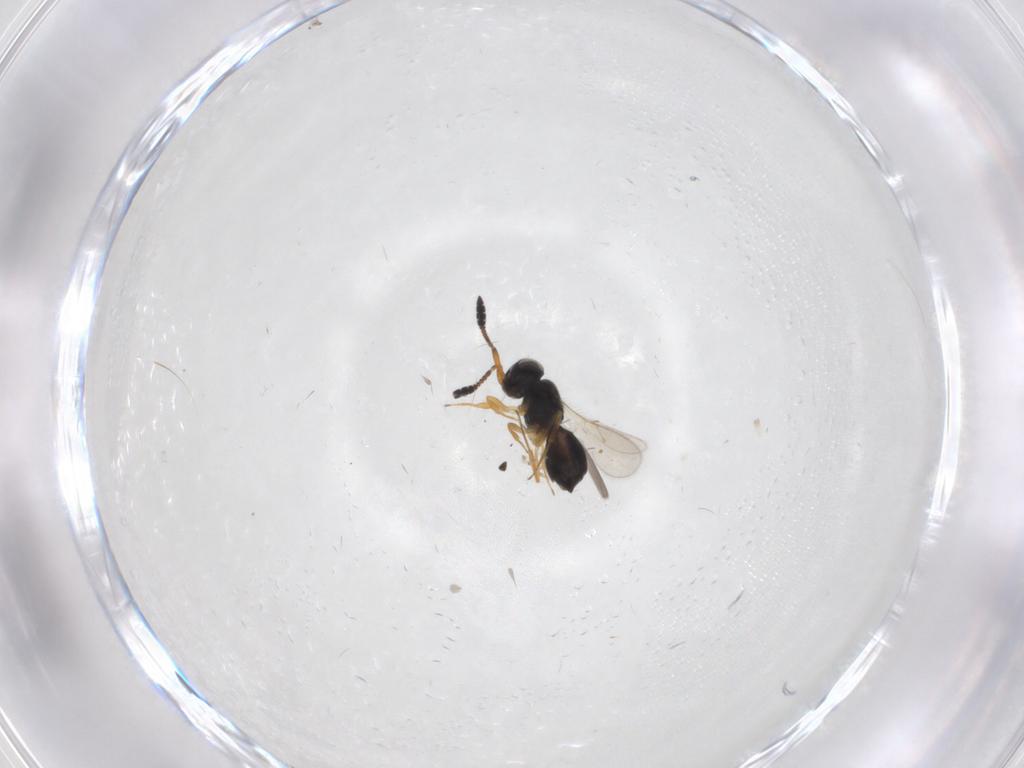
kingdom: Animalia
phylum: Arthropoda
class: Insecta
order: Hymenoptera
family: Scelionidae
